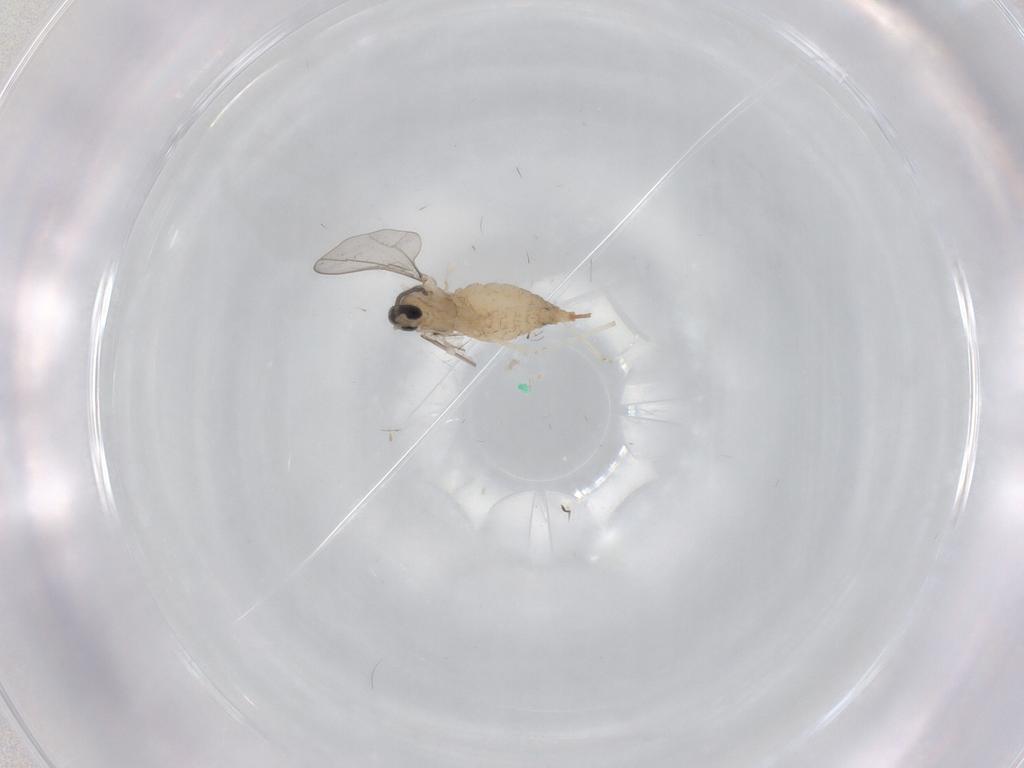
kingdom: Animalia
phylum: Arthropoda
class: Insecta
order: Diptera
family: Cecidomyiidae
